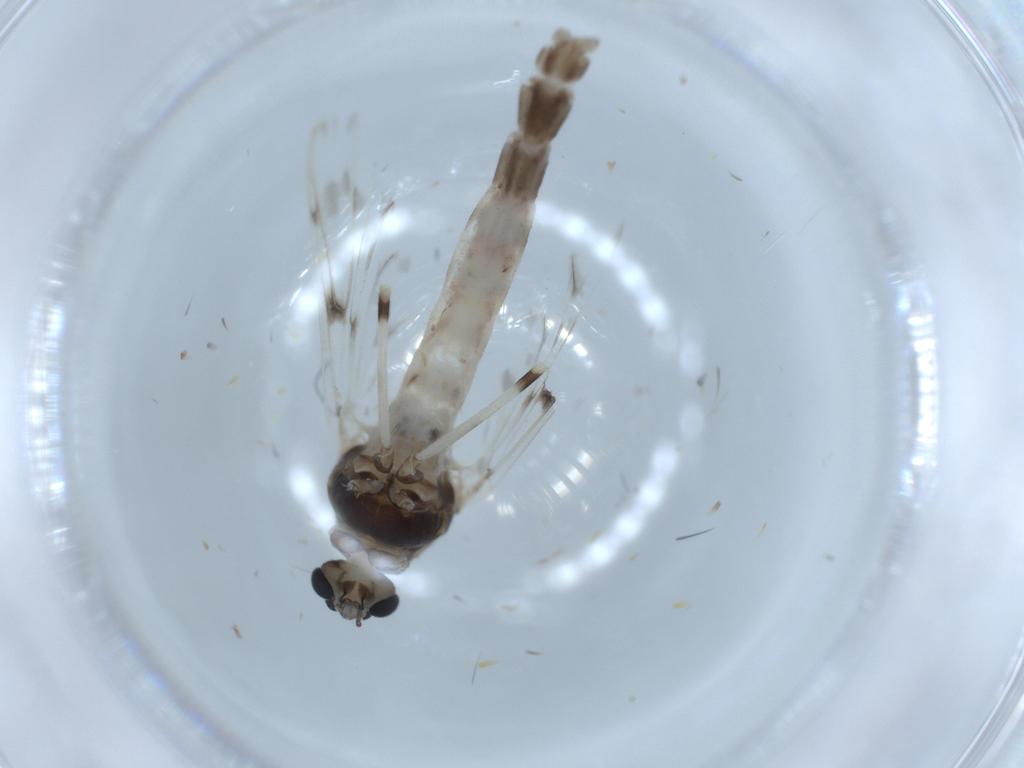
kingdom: Animalia
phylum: Arthropoda
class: Insecta
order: Diptera
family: Chironomidae
